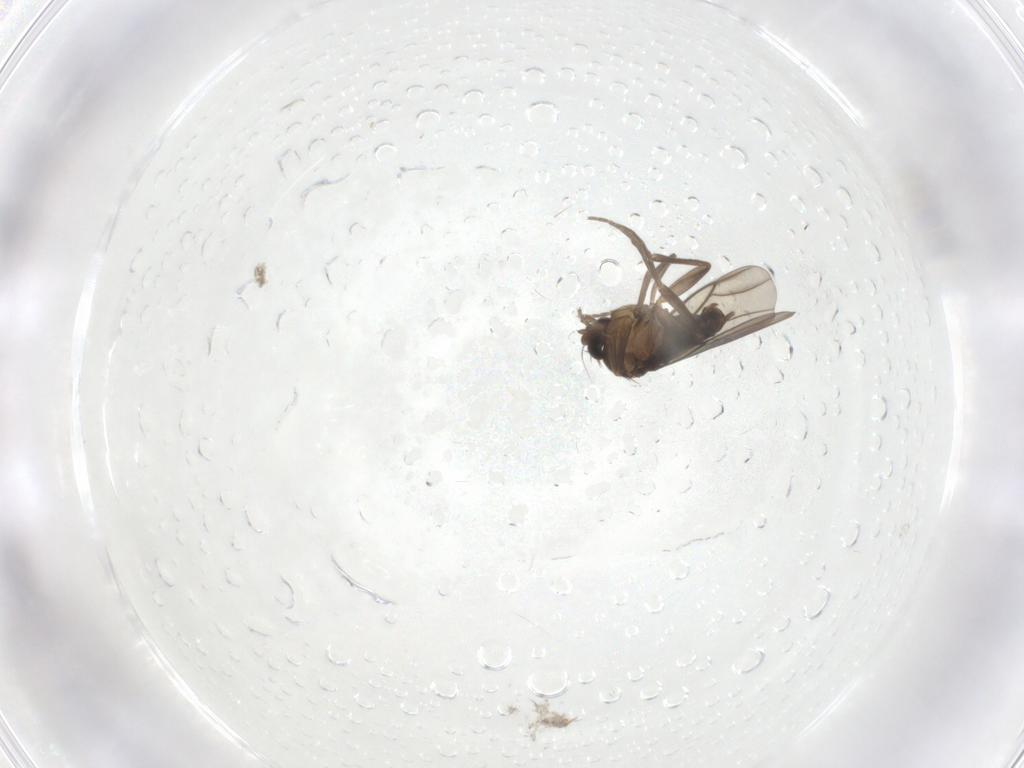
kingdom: Animalia
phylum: Arthropoda
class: Insecta
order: Diptera
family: Phoridae
